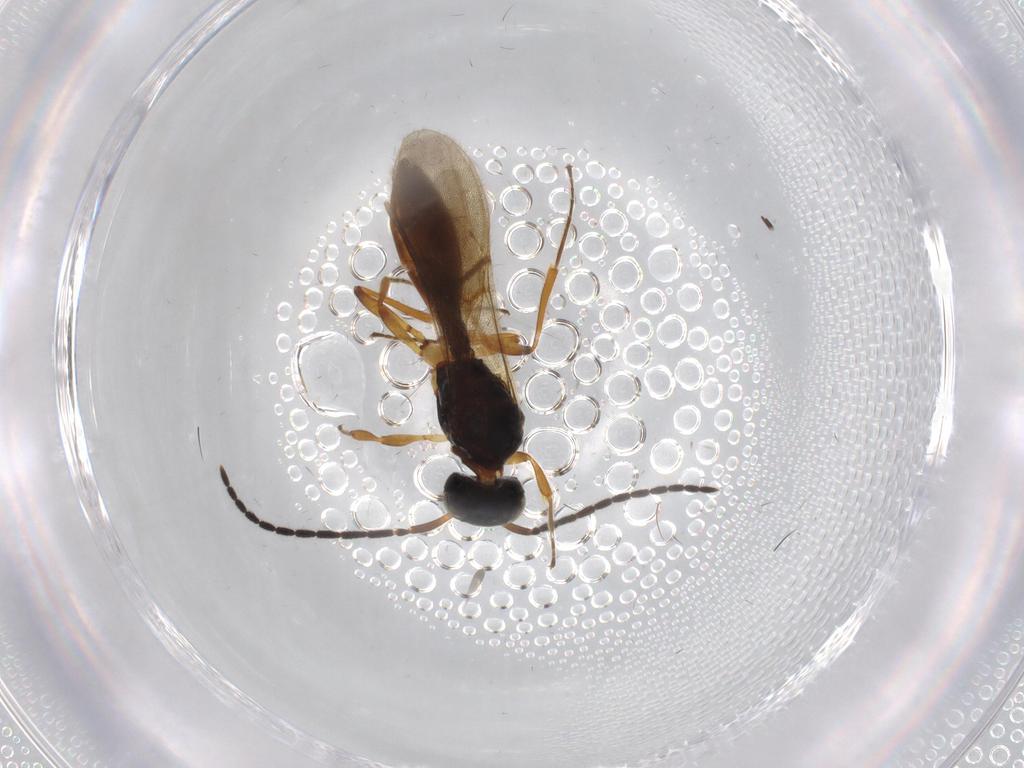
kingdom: Animalia
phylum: Arthropoda
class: Insecta
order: Hymenoptera
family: Scelionidae
